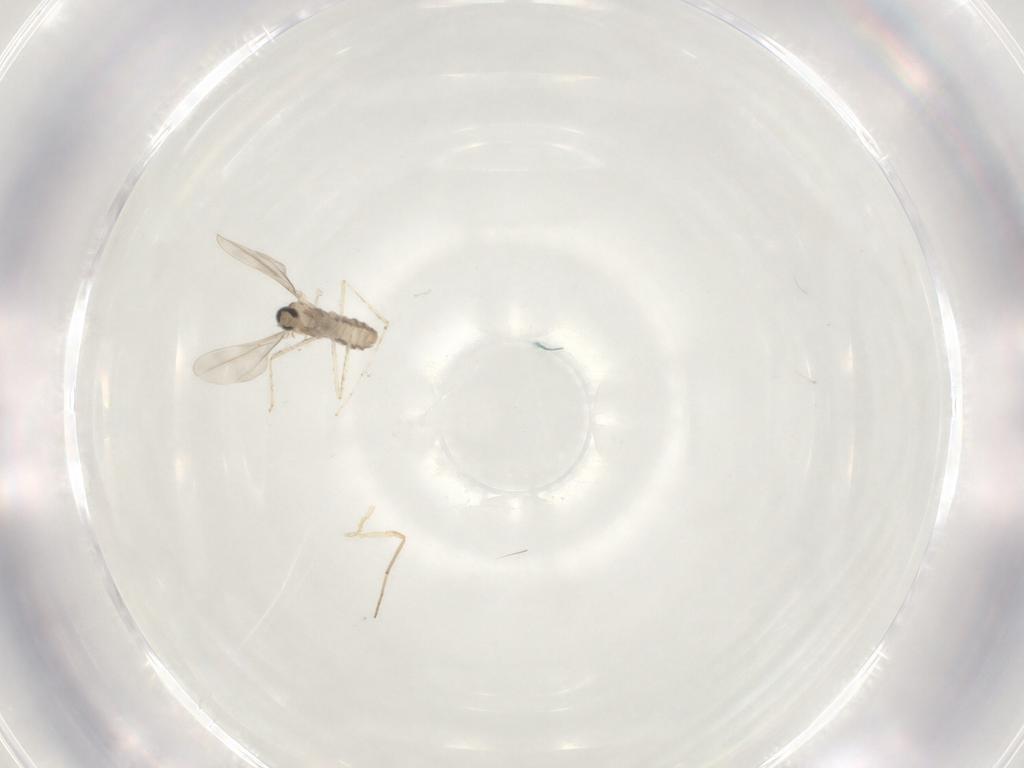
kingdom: Animalia
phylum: Arthropoda
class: Insecta
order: Diptera
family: Cecidomyiidae
